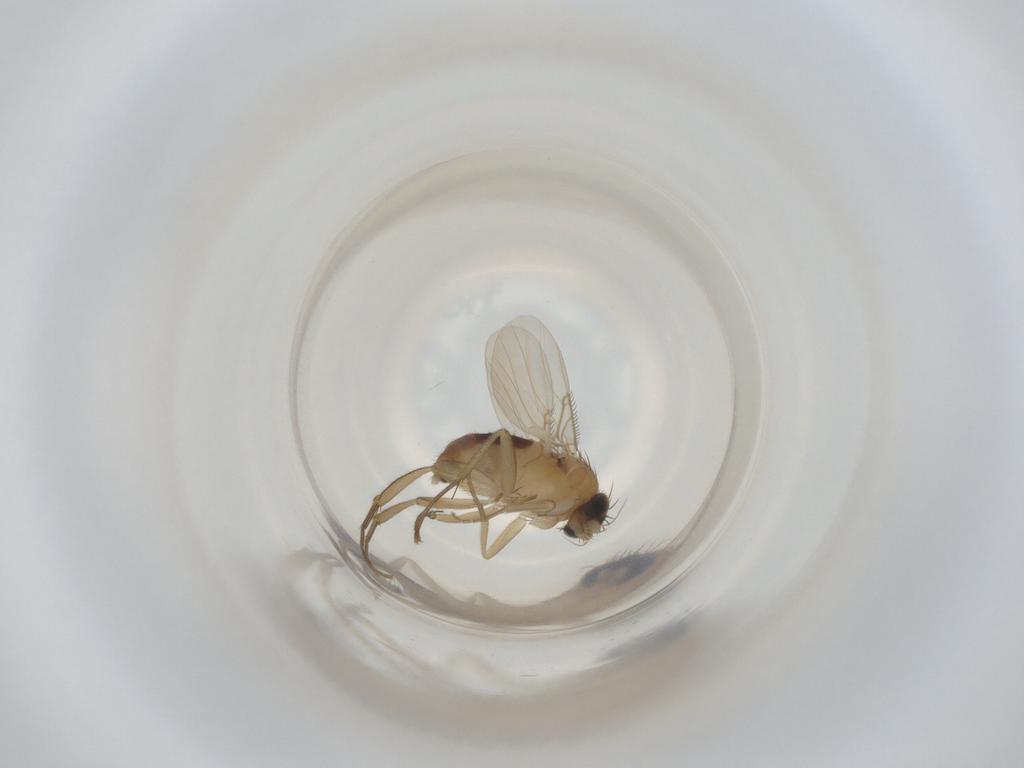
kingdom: Animalia
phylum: Arthropoda
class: Insecta
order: Diptera
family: Phoridae
